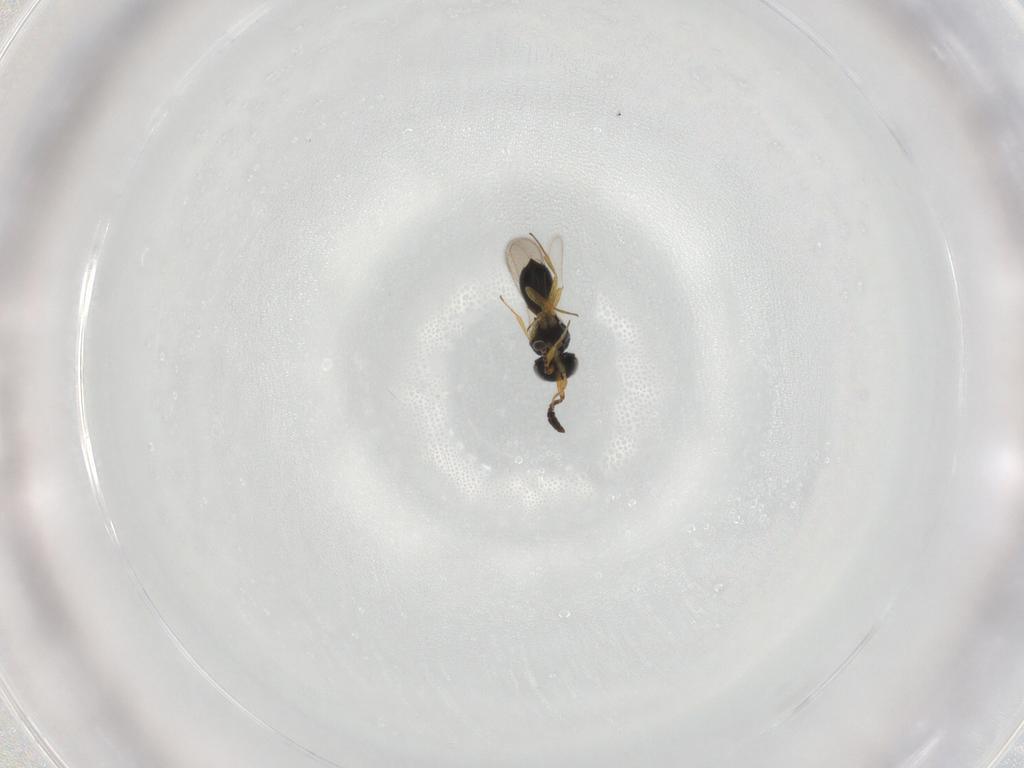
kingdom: Animalia
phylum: Arthropoda
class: Insecta
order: Hymenoptera
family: Scelionidae
